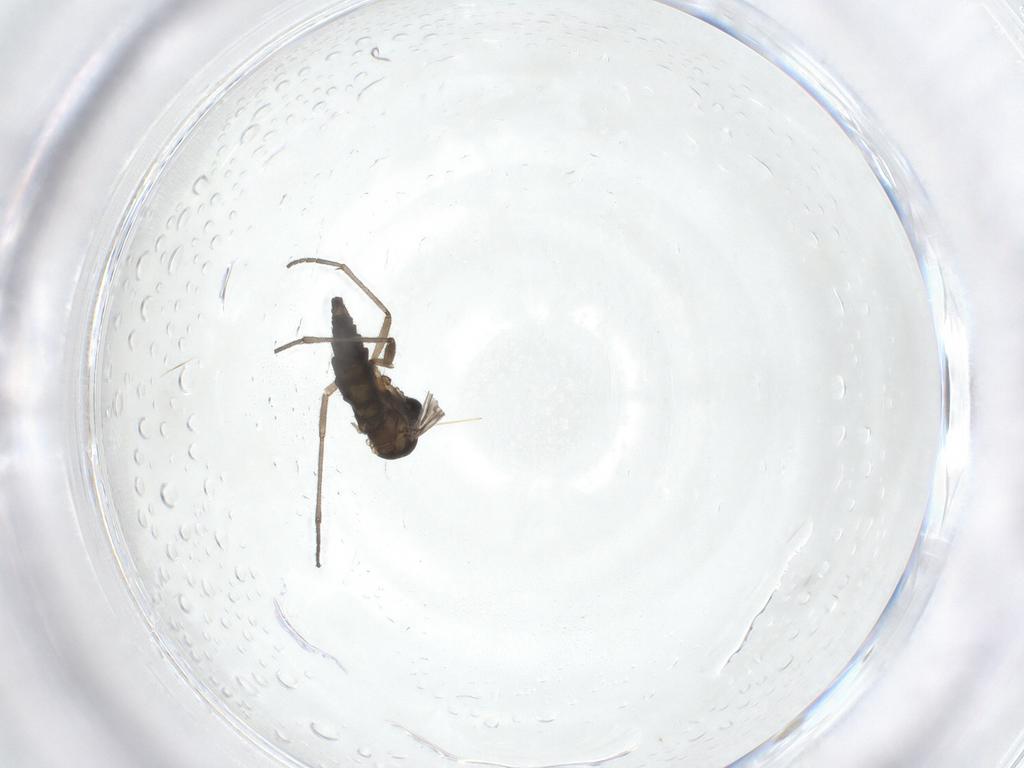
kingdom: Animalia
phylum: Arthropoda
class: Insecta
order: Diptera
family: Sciaridae
